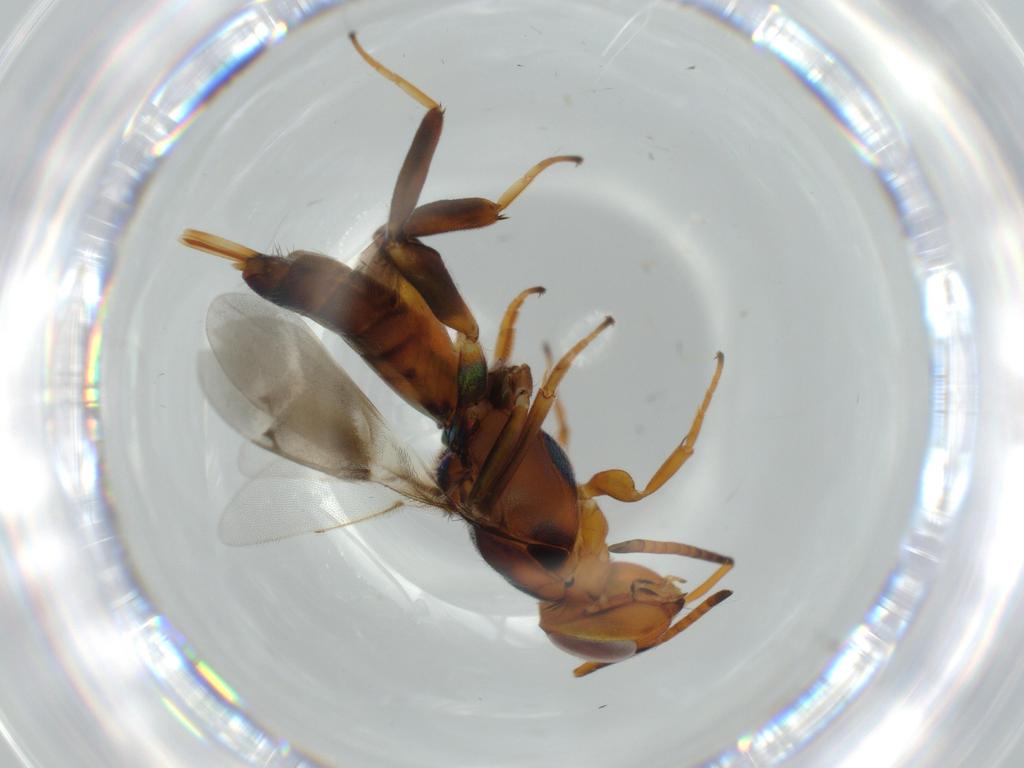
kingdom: Animalia
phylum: Arthropoda
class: Insecta
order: Hymenoptera
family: Eupelmidae
